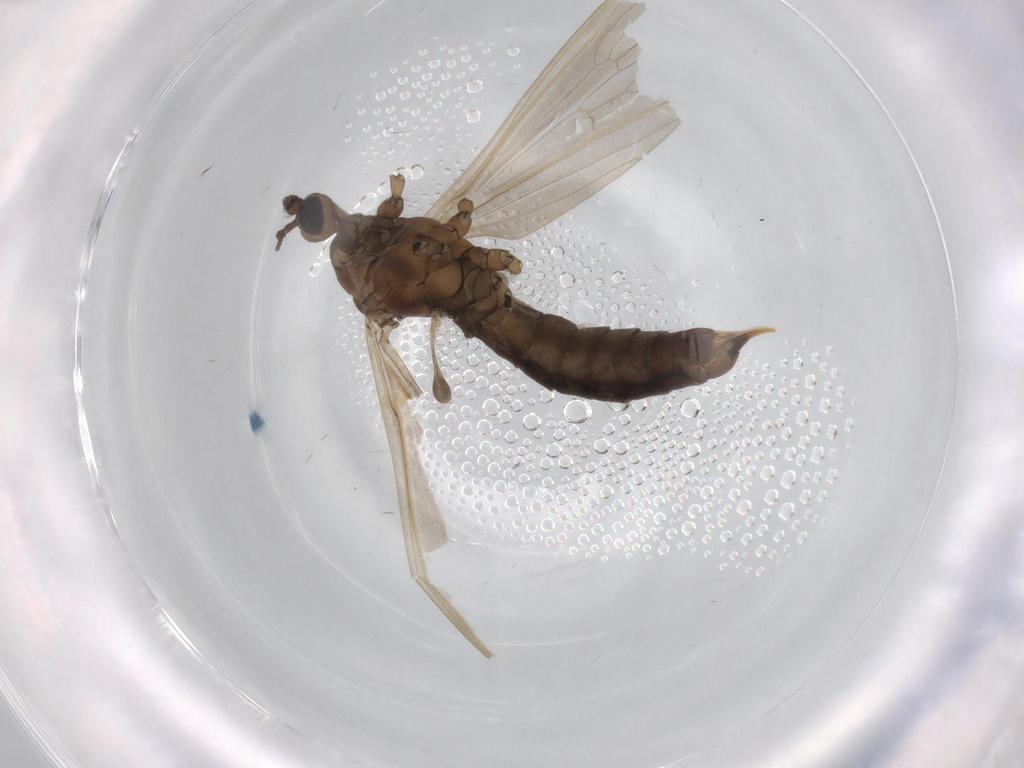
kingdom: Animalia
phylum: Arthropoda
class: Insecta
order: Diptera
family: Limoniidae
